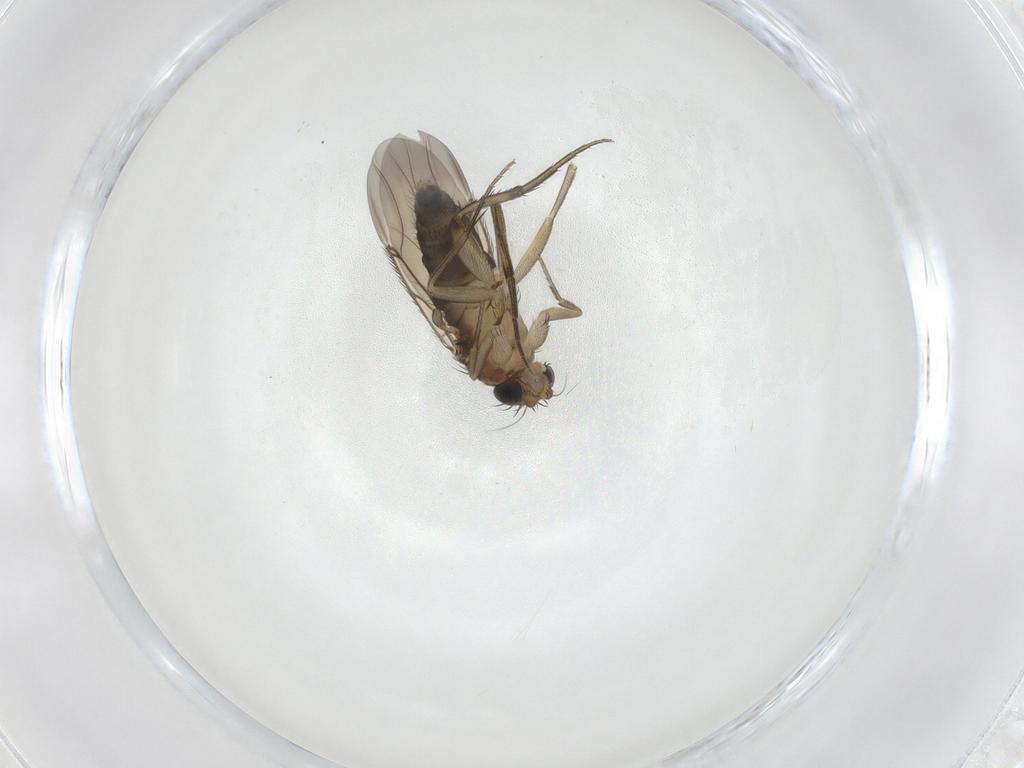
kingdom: Animalia
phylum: Arthropoda
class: Insecta
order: Diptera
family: Phoridae
